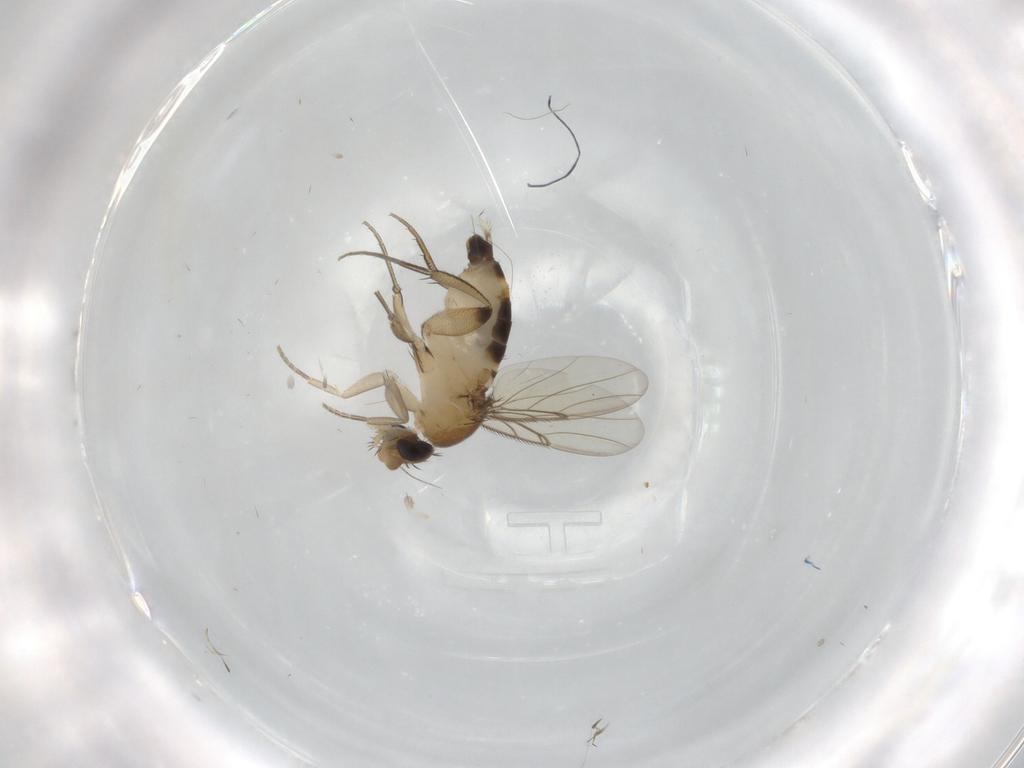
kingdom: Animalia
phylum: Arthropoda
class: Insecta
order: Diptera
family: Phoridae
